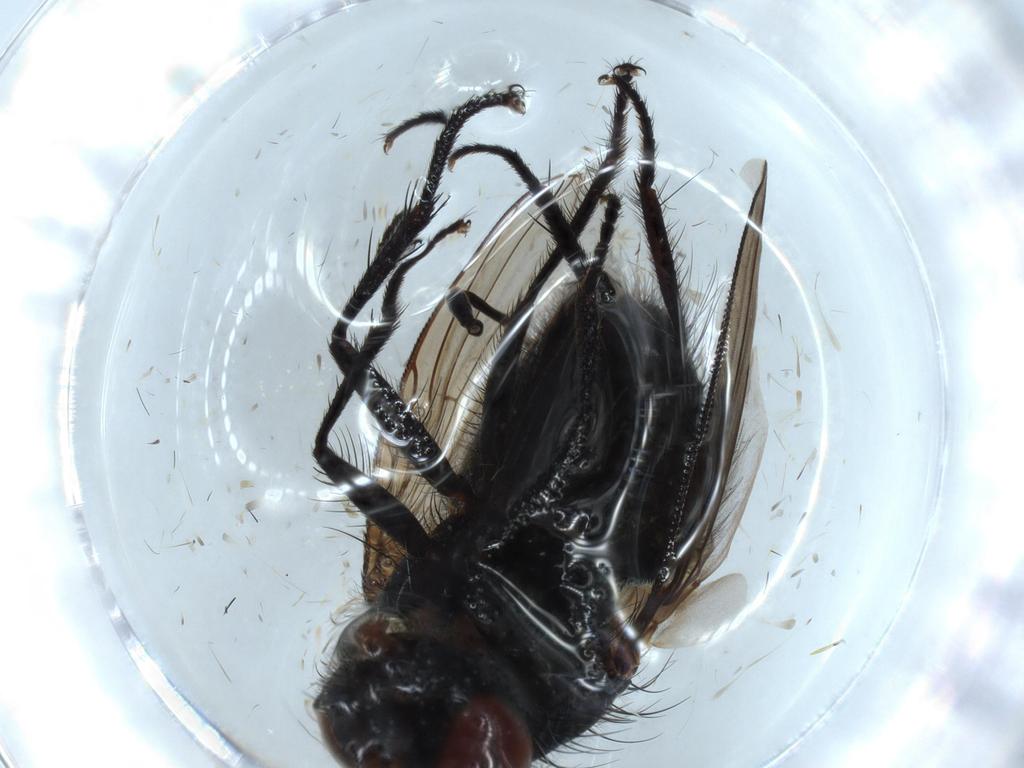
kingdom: Animalia
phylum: Arthropoda
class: Insecta
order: Diptera
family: Polleniidae
